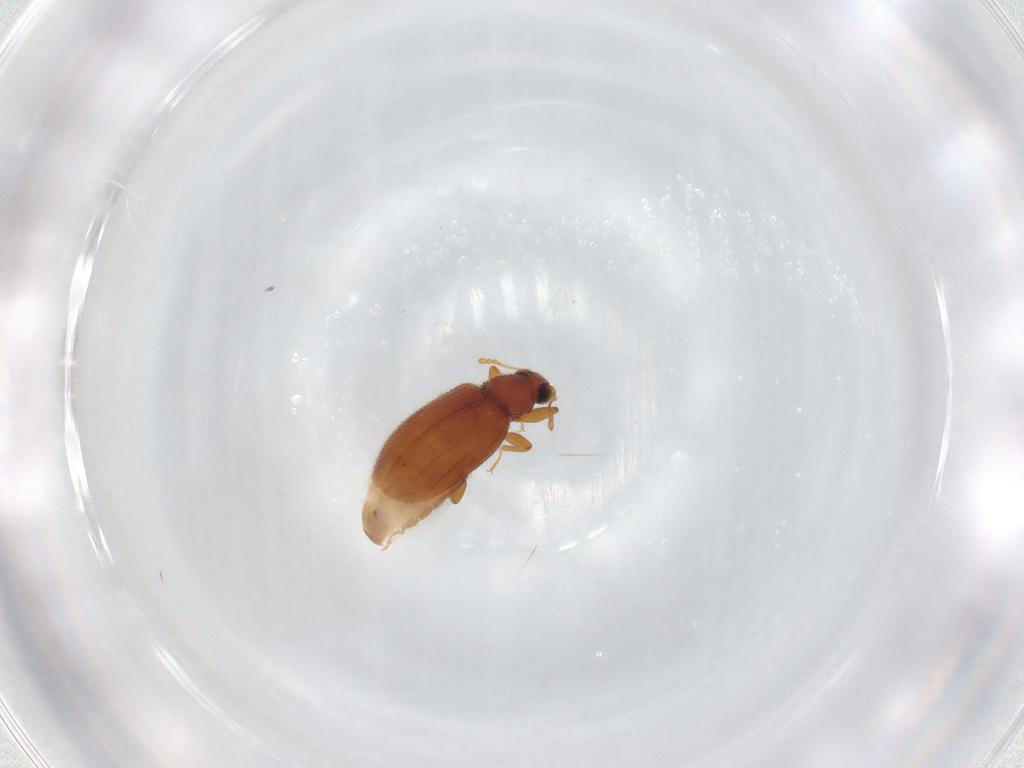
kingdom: Animalia
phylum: Arthropoda
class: Insecta
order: Coleoptera
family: Latridiidae
